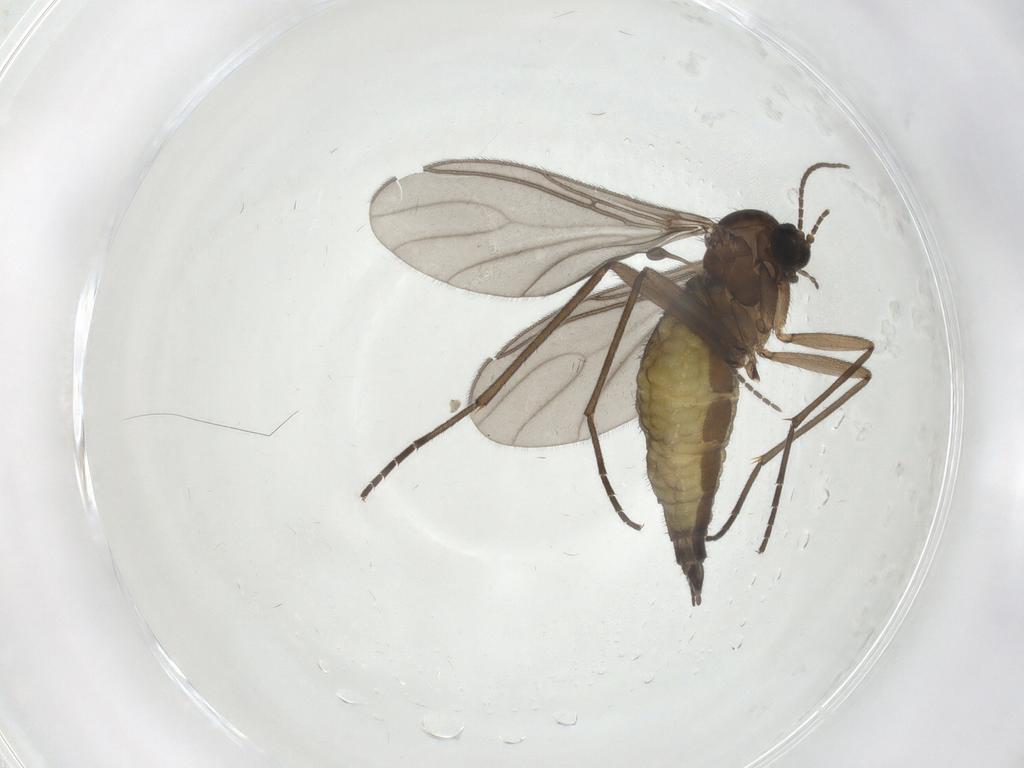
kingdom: Animalia
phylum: Arthropoda
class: Insecta
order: Diptera
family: Sciaridae
